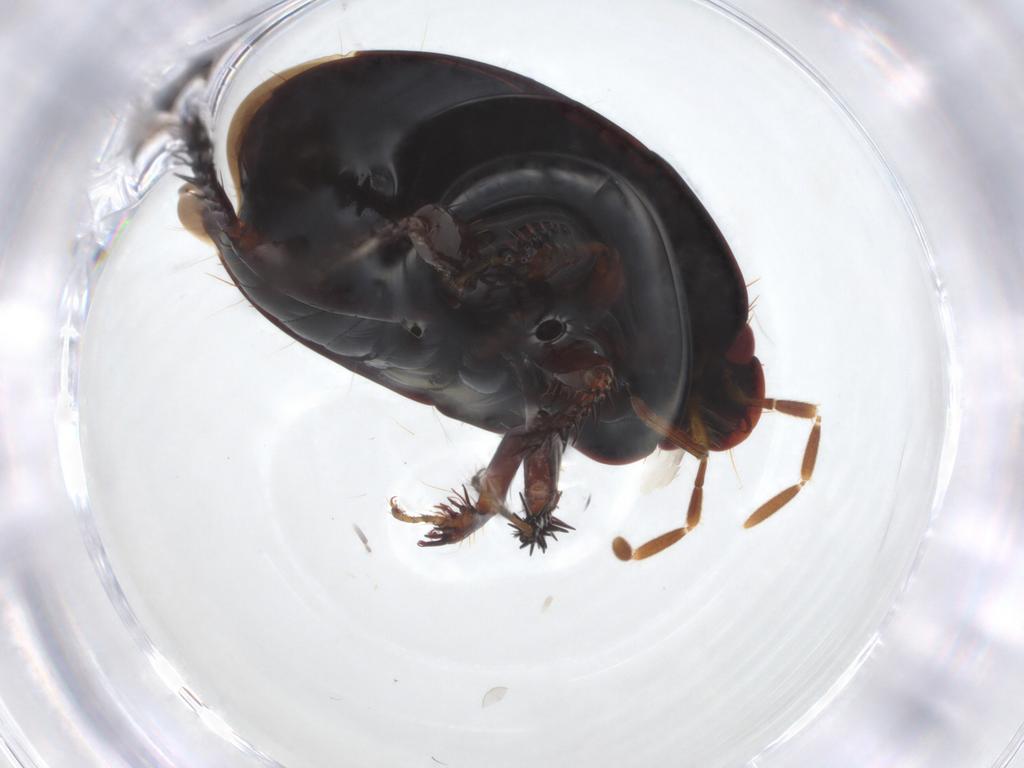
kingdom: Animalia
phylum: Arthropoda
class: Insecta
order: Hemiptera
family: Cydnidae
